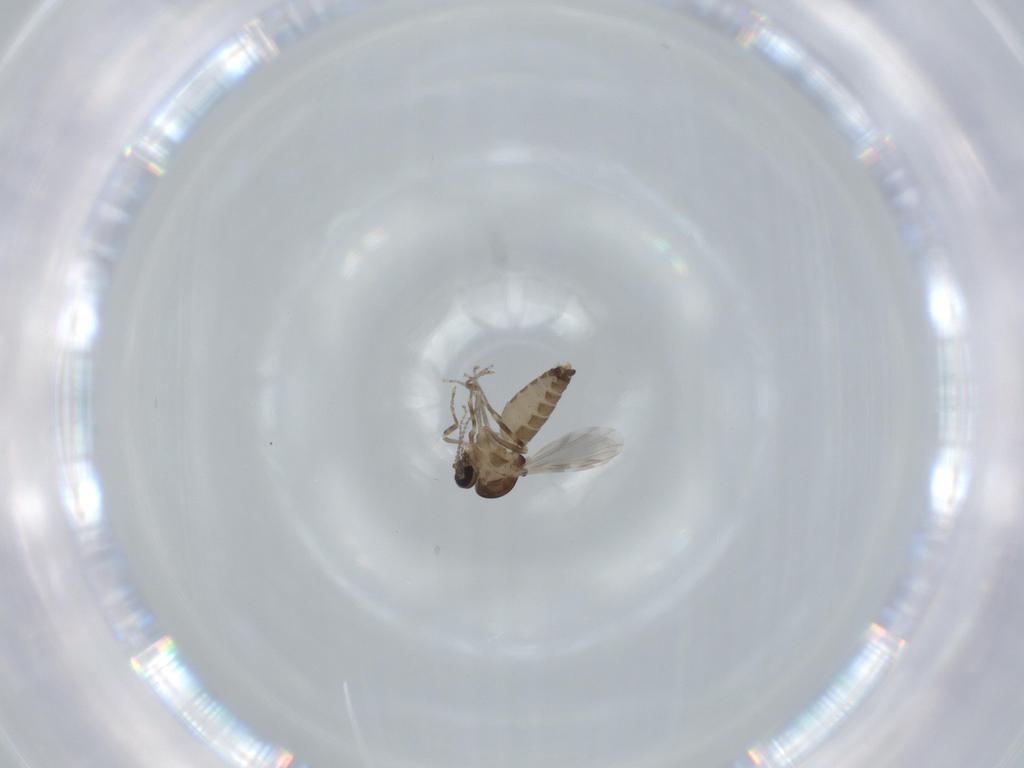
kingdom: Animalia
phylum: Arthropoda
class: Insecta
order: Diptera
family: Ceratopogonidae
